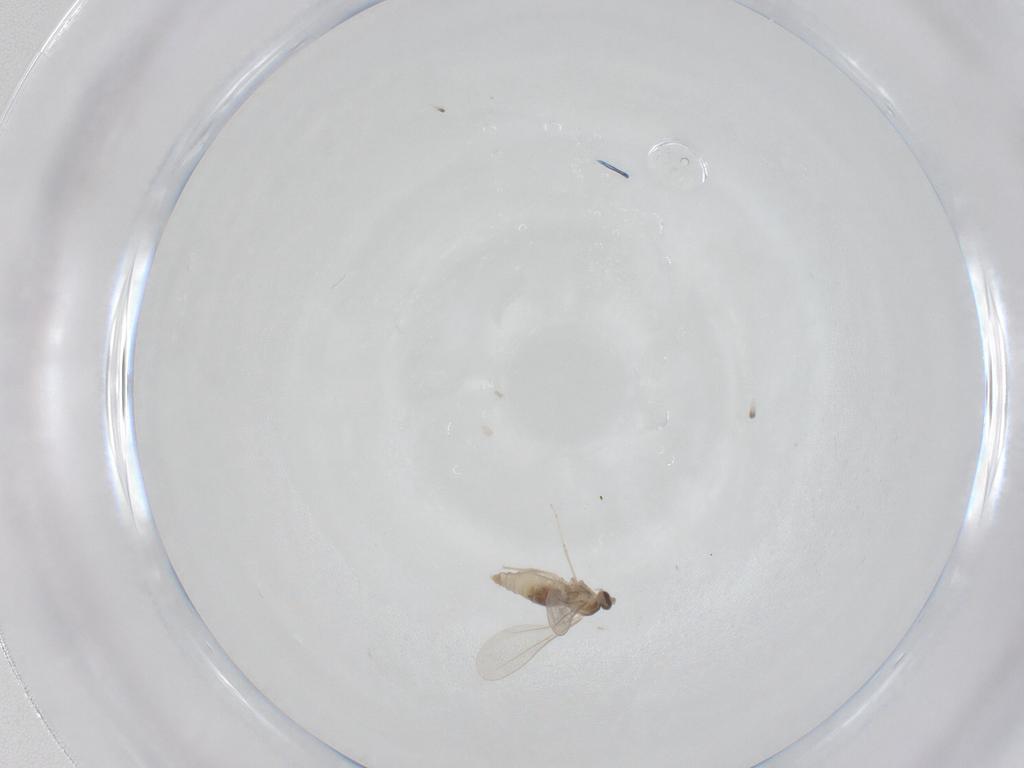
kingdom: Animalia
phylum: Arthropoda
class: Insecta
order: Diptera
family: Cecidomyiidae
